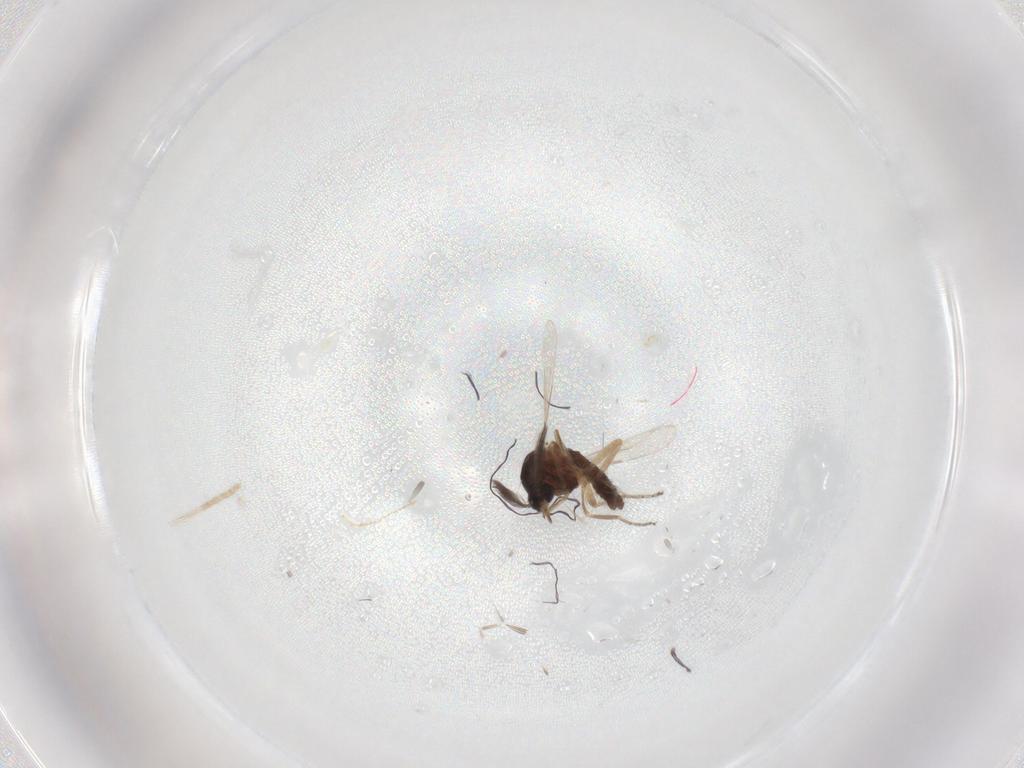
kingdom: Animalia
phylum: Arthropoda
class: Insecta
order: Diptera
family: Ceratopogonidae
